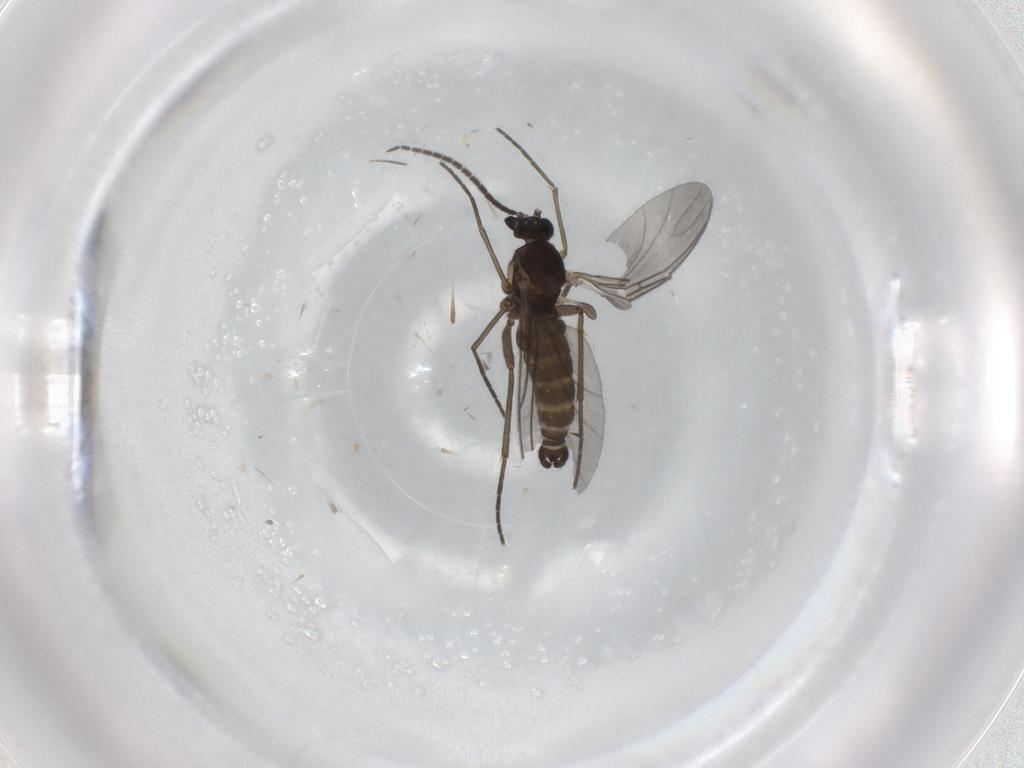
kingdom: Animalia
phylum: Arthropoda
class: Insecta
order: Diptera
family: Sciaridae
